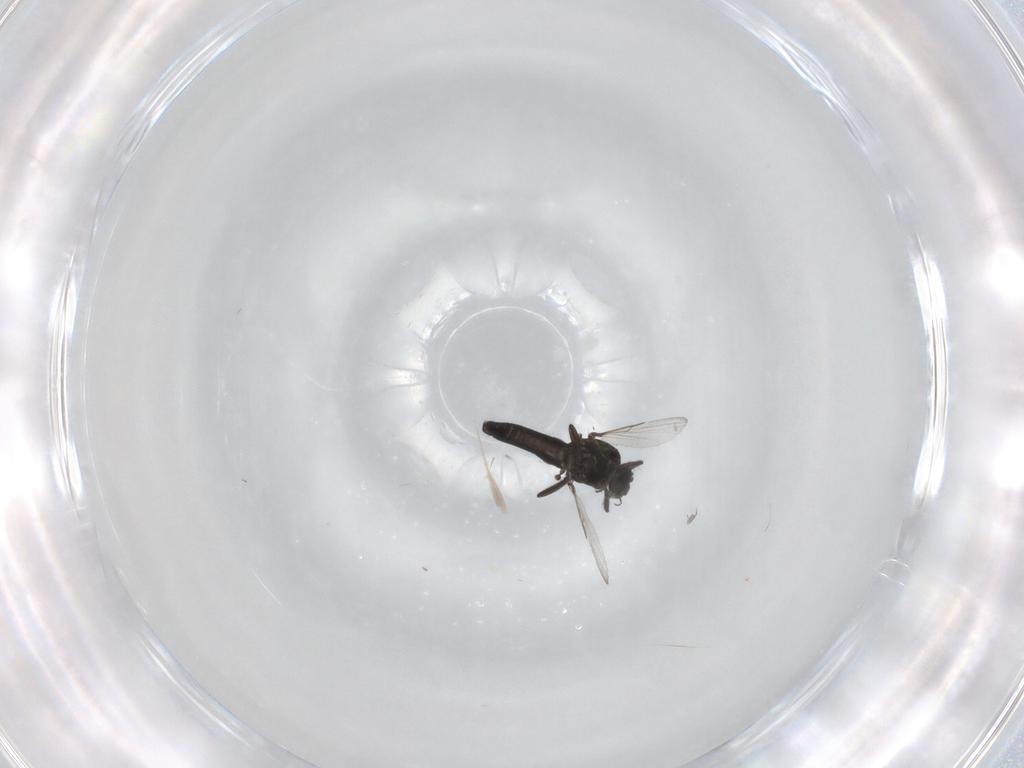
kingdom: Animalia
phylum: Arthropoda
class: Insecta
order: Diptera
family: Ceratopogonidae
